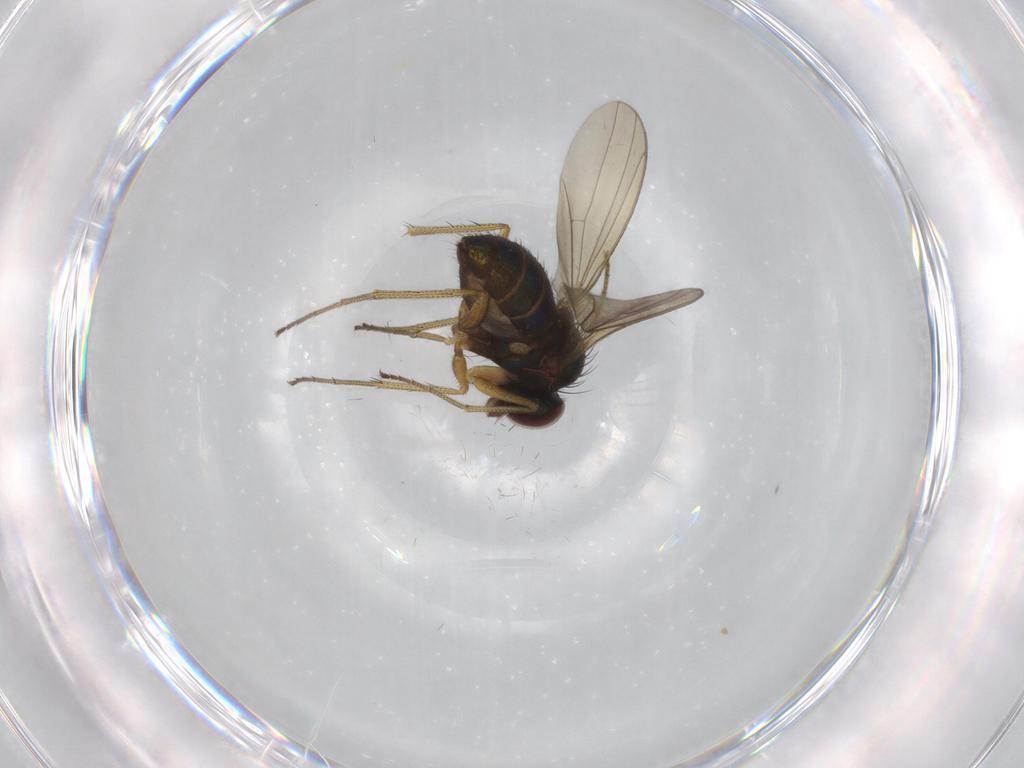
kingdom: Animalia
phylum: Arthropoda
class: Insecta
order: Diptera
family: Dolichopodidae
